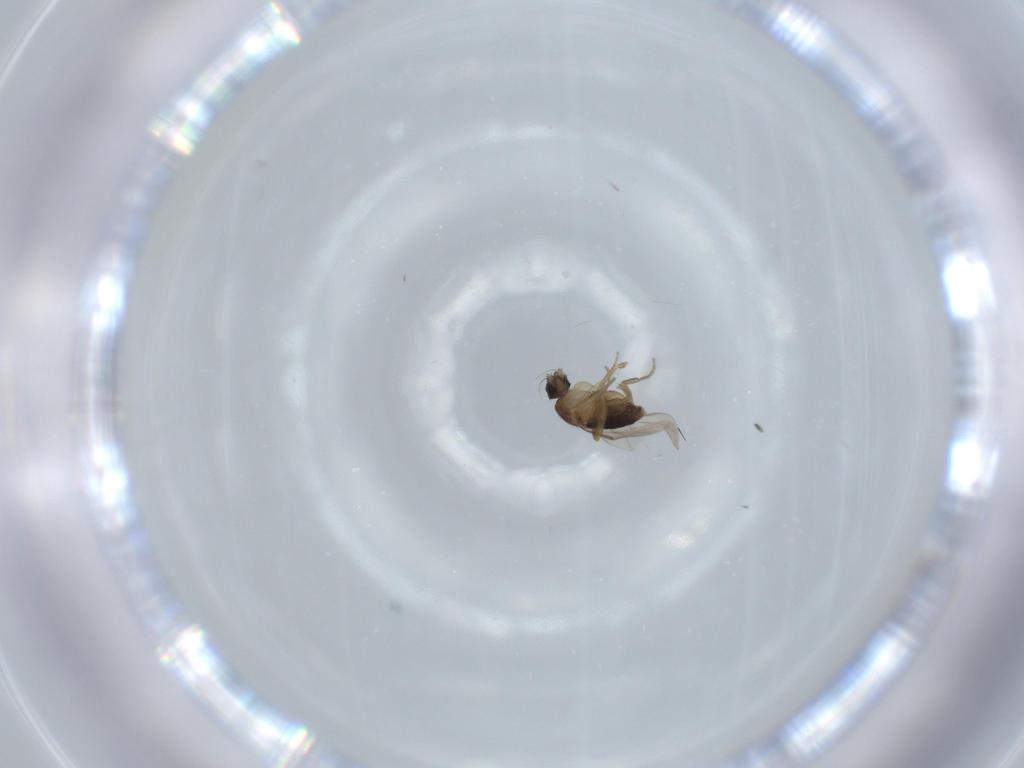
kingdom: Animalia
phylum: Arthropoda
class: Insecta
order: Diptera
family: Phoridae
